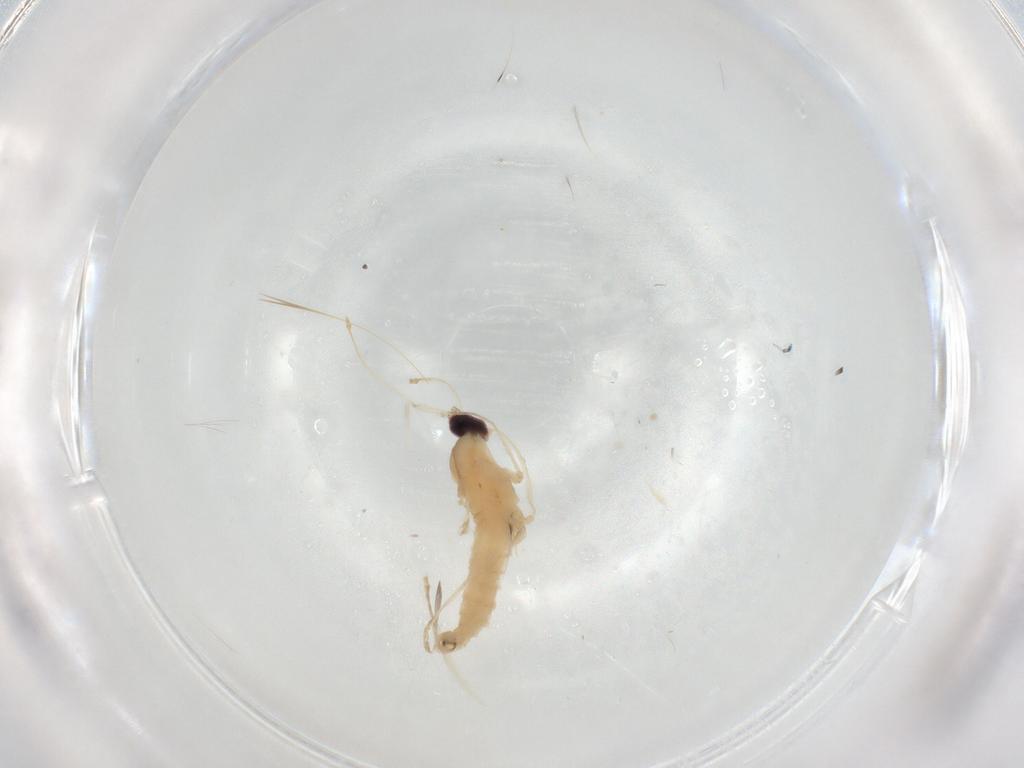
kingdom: Animalia
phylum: Arthropoda
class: Insecta
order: Diptera
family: Cecidomyiidae
